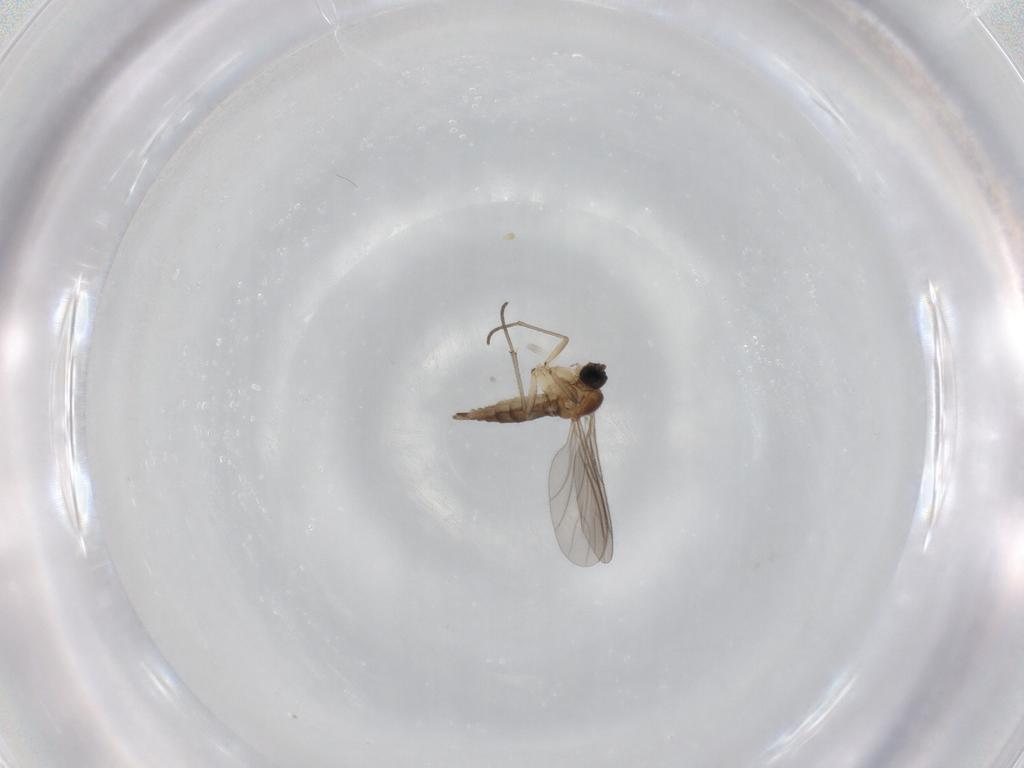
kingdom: Animalia
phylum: Arthropoda
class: Insecta
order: Diptera
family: Sciaridae
